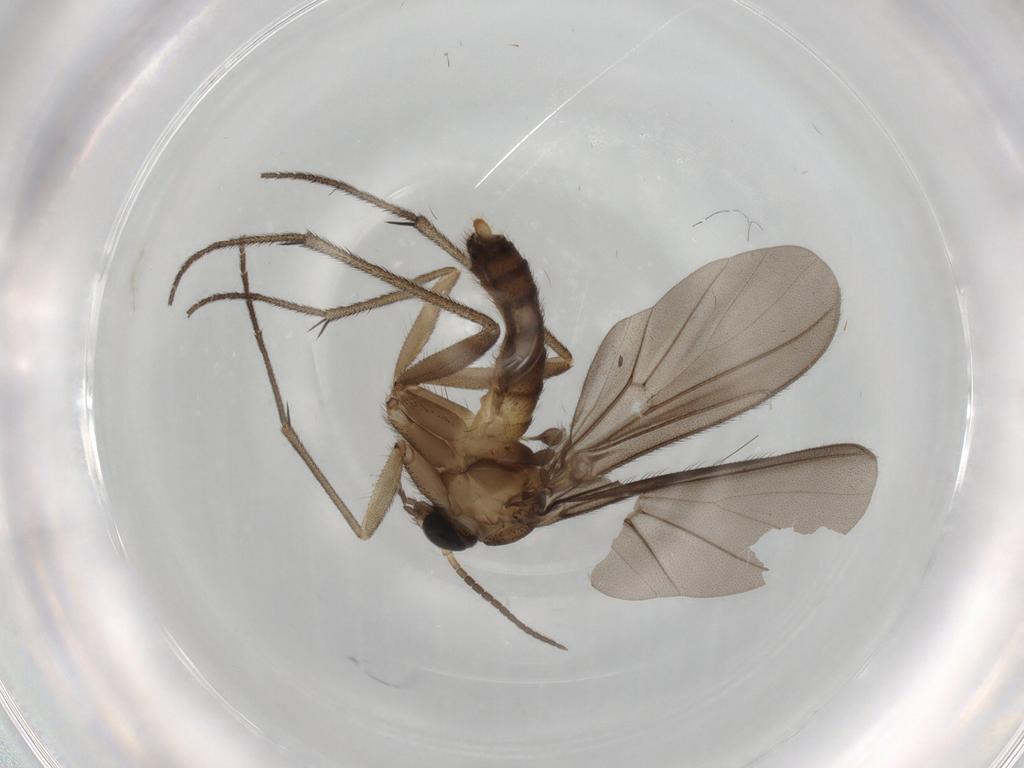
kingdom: Animalia
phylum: Arthropoda
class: Insecta
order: Diptera
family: Diadocidiidae
